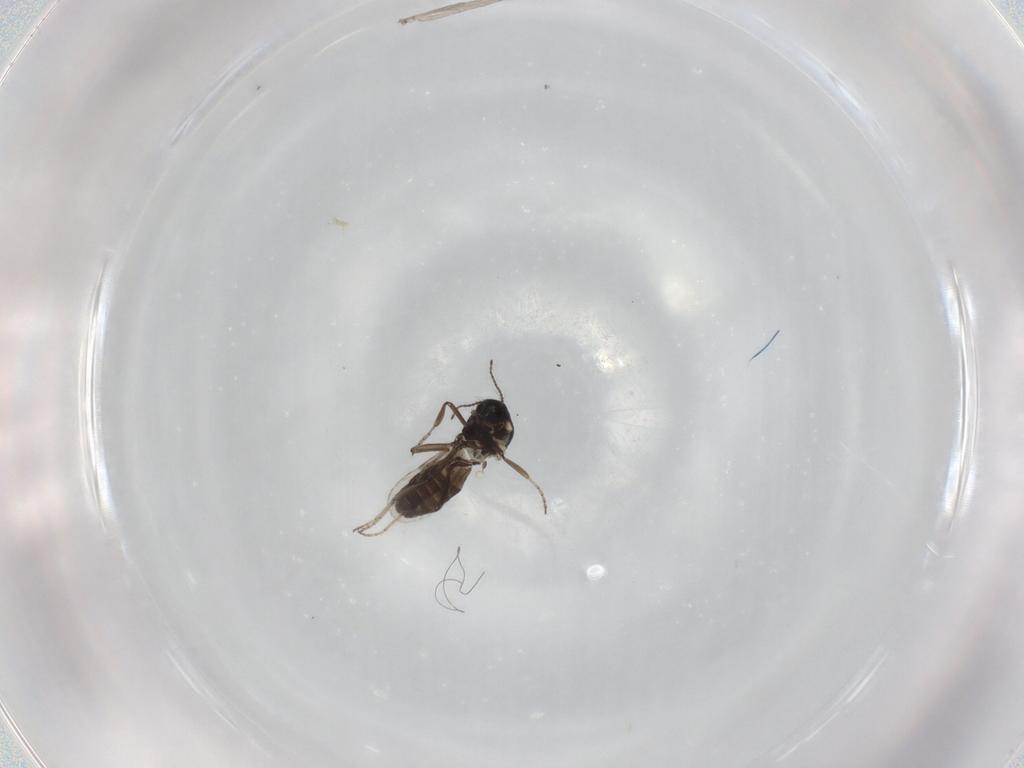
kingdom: Animalia
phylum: Arthropoda
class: Insecta
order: Diptera
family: Ceratopogonidae
